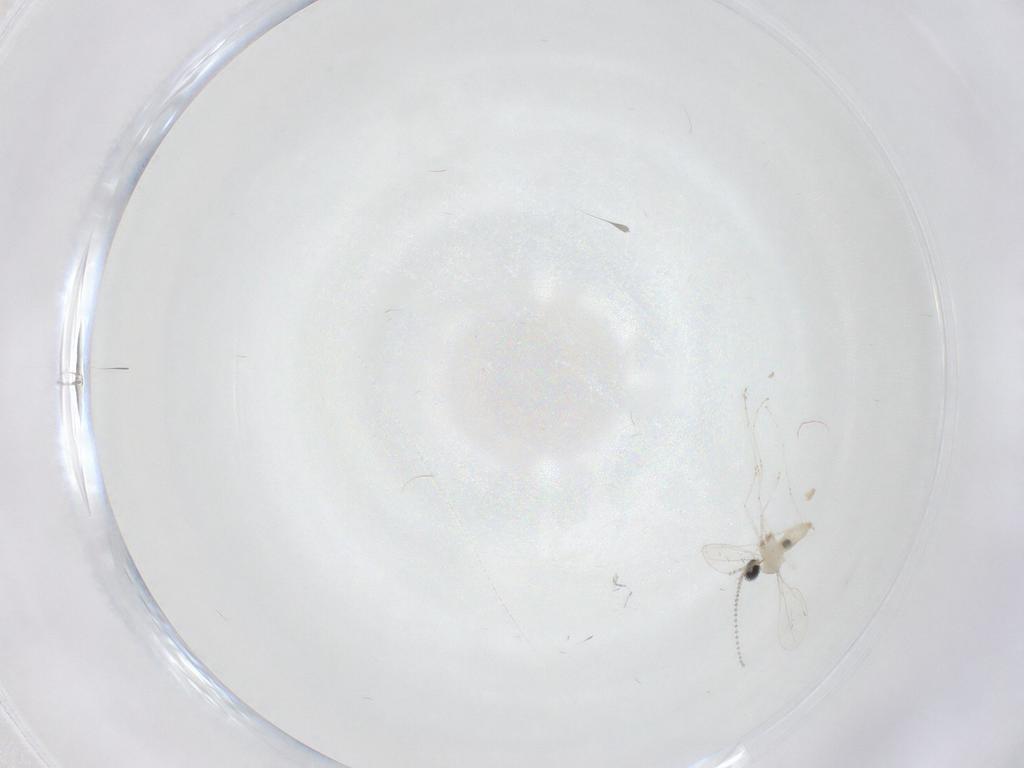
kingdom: Animalia
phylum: Arthropoda
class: Insecta
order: Diptera
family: Cecidomyiidae
